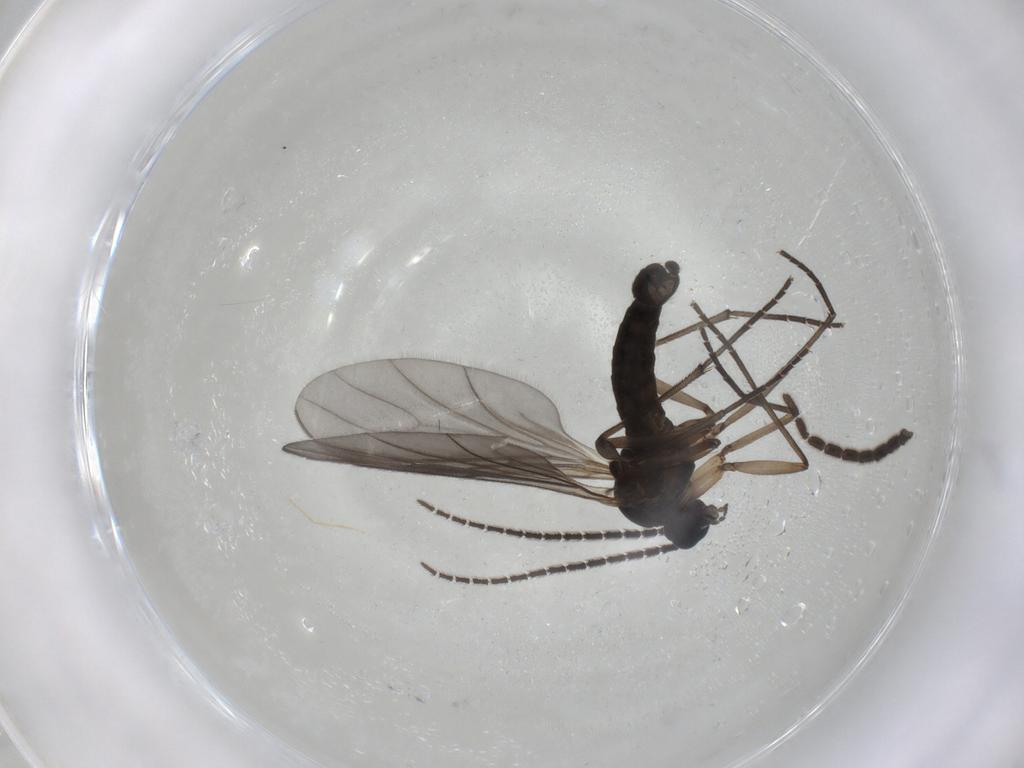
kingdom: Animalia
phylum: Arthropoda
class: Insecta
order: Diptera
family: Sciaridae
